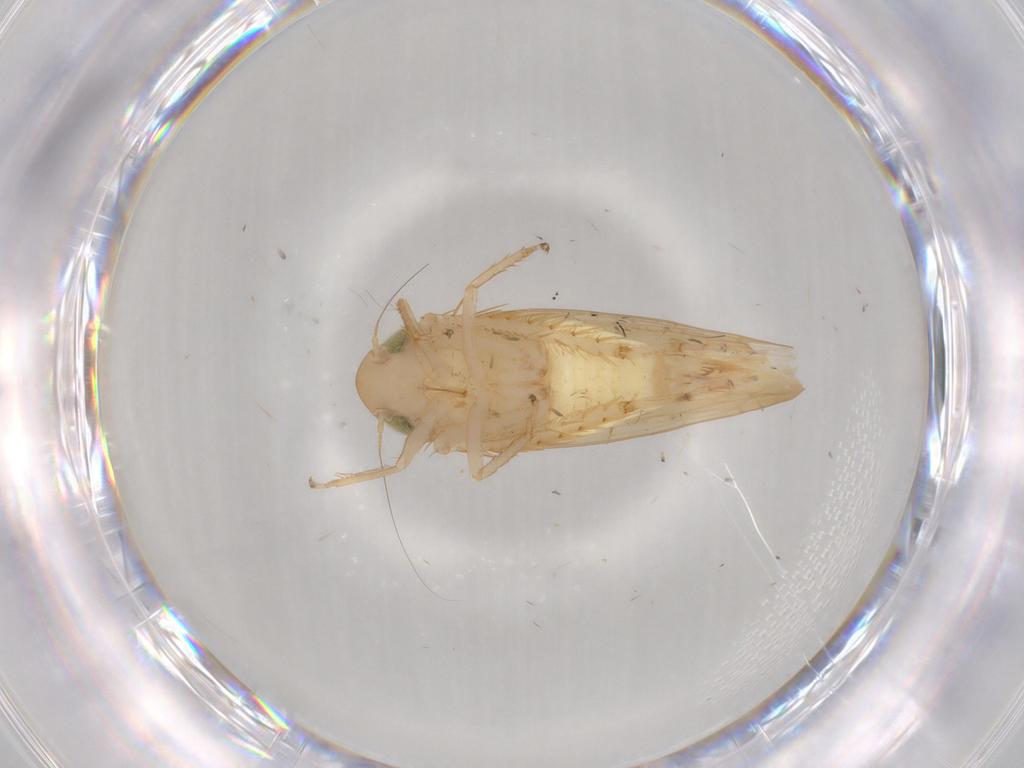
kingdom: Animalia
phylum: Arthropoda
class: Insecta
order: Hemiptera
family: Cicadellidae
